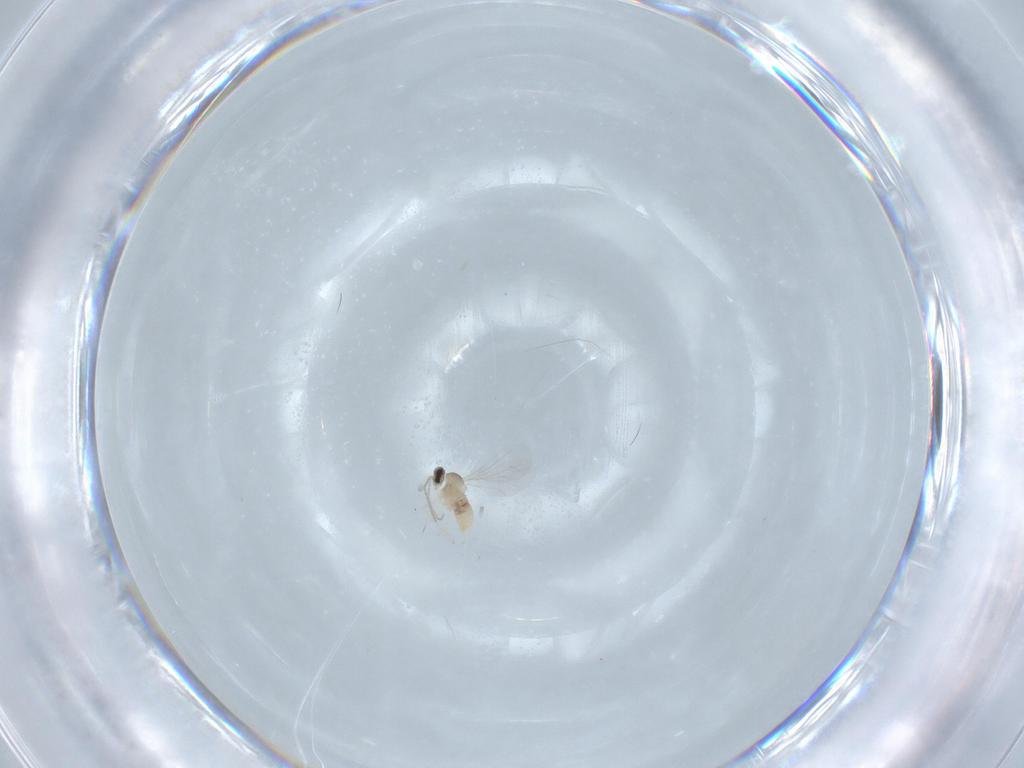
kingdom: Animalia
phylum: Arthropoda
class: Insecta
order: Diptera
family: Cecidomyiidae
